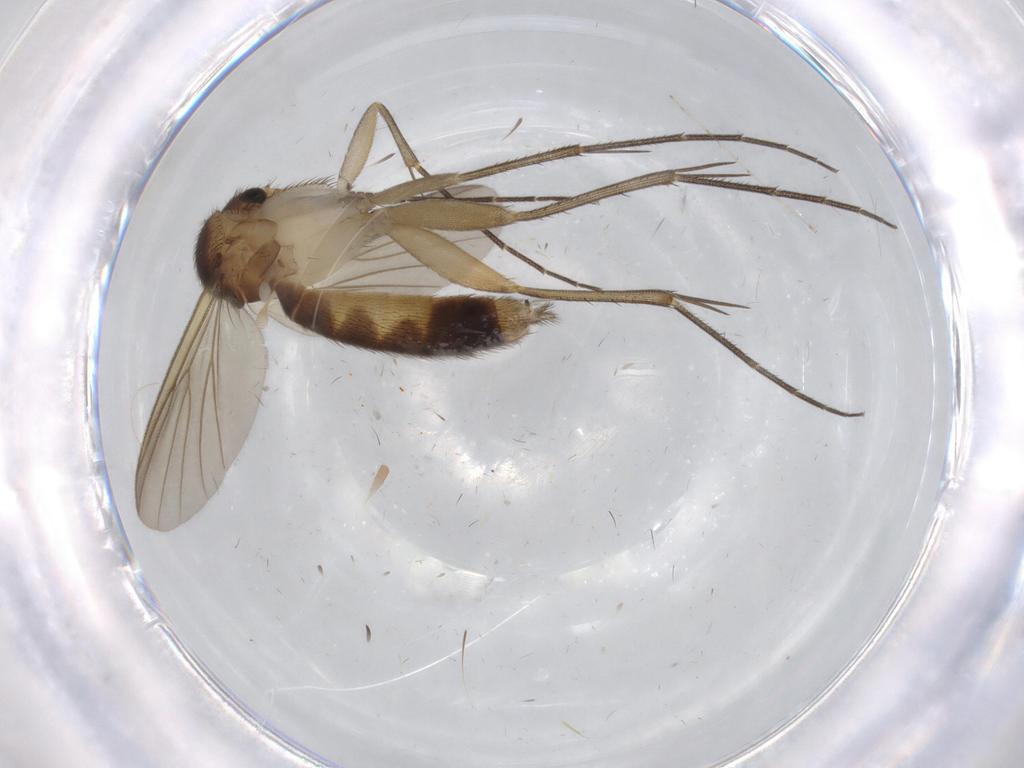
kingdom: Animalia
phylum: Arthropoda
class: Insecta
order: Diptera
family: Mycetophilidae
